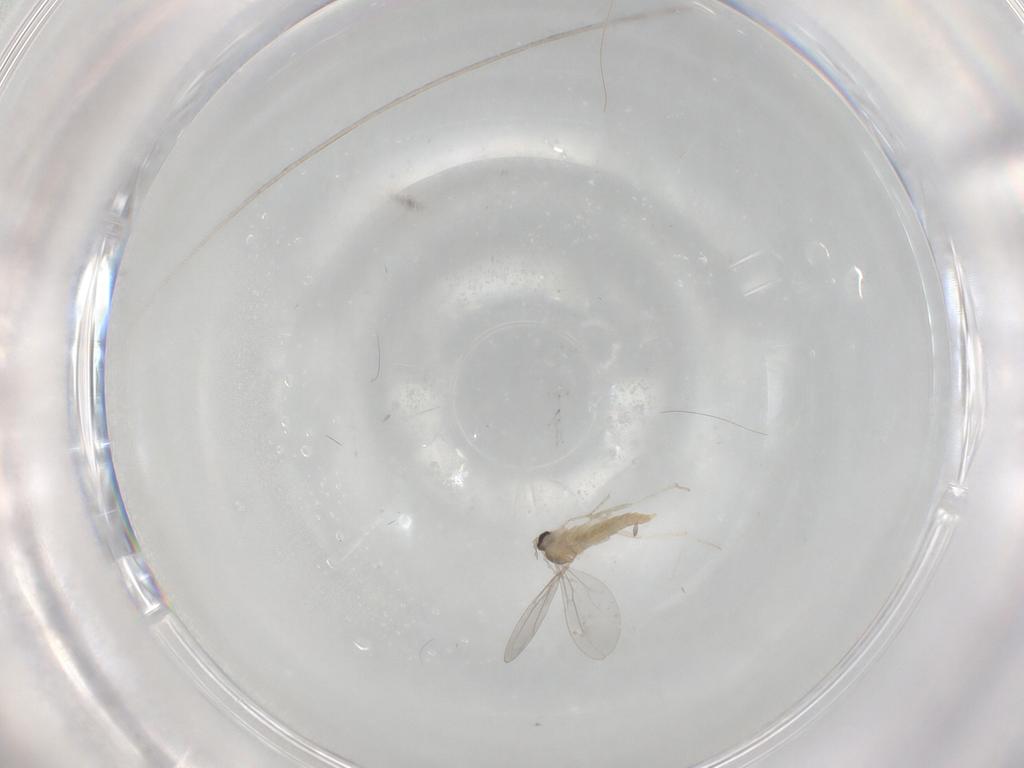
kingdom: Animalia
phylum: Arthropoda
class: Insecta
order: Diptera
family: Cecidomyiidae
